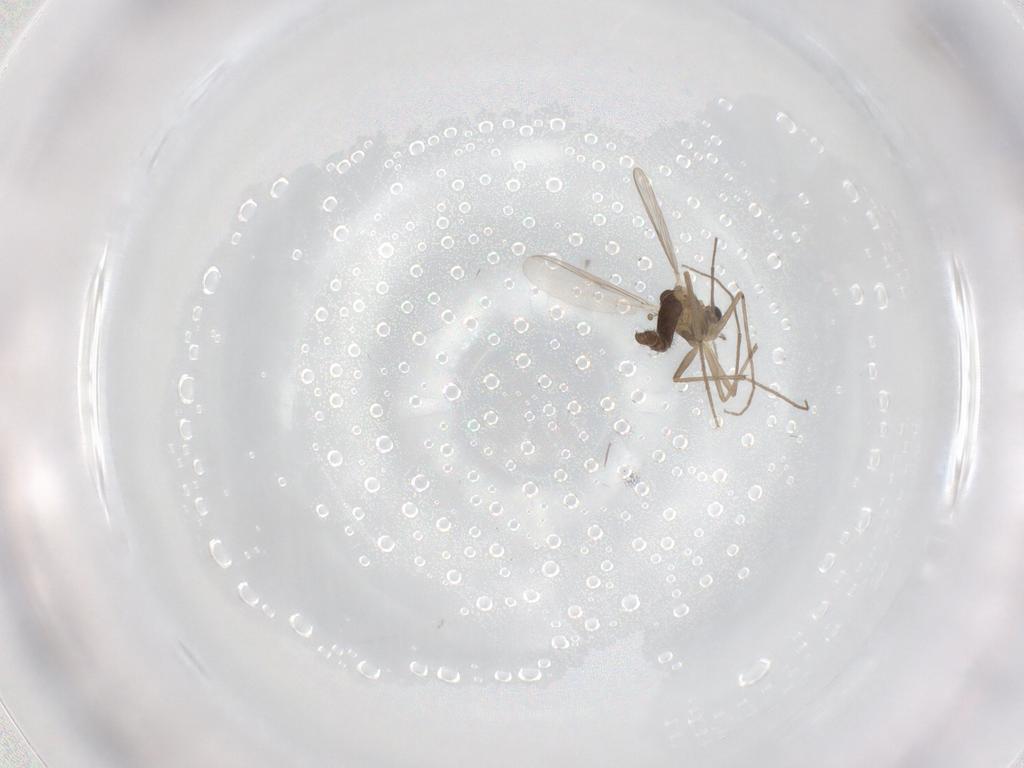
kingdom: Animalia
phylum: Arthropoda
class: Insecta
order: Diptera
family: Chironomidae
